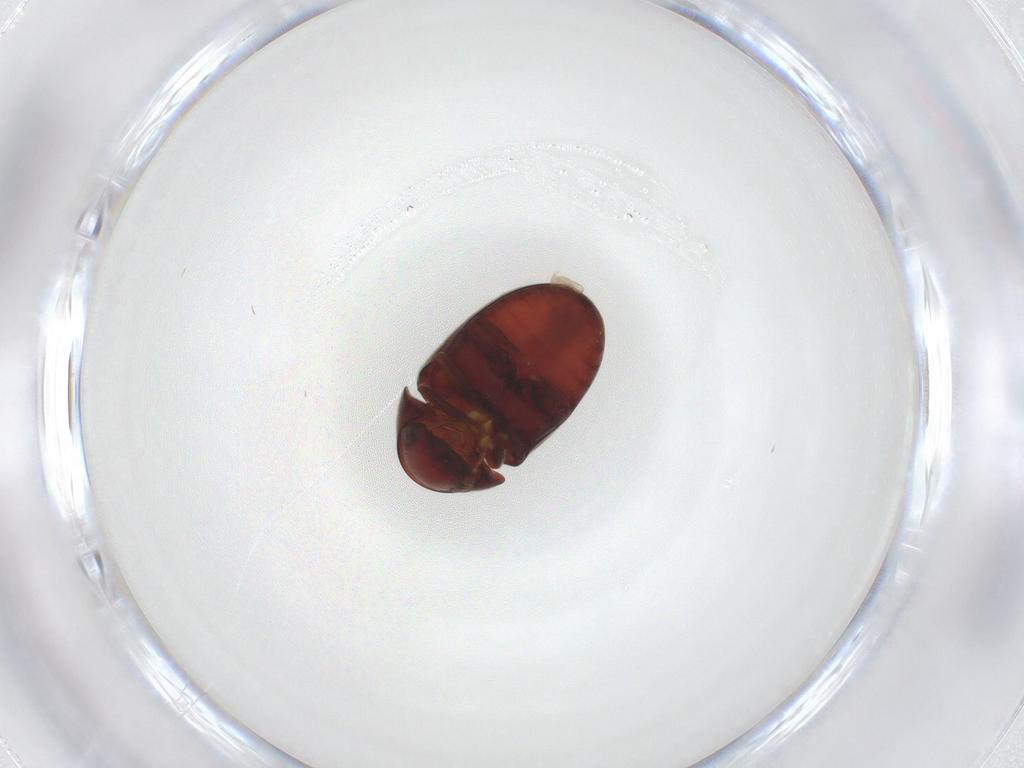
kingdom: Animalia
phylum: Arthropoda
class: Insecta
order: Coleoptera
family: Ptinidae
